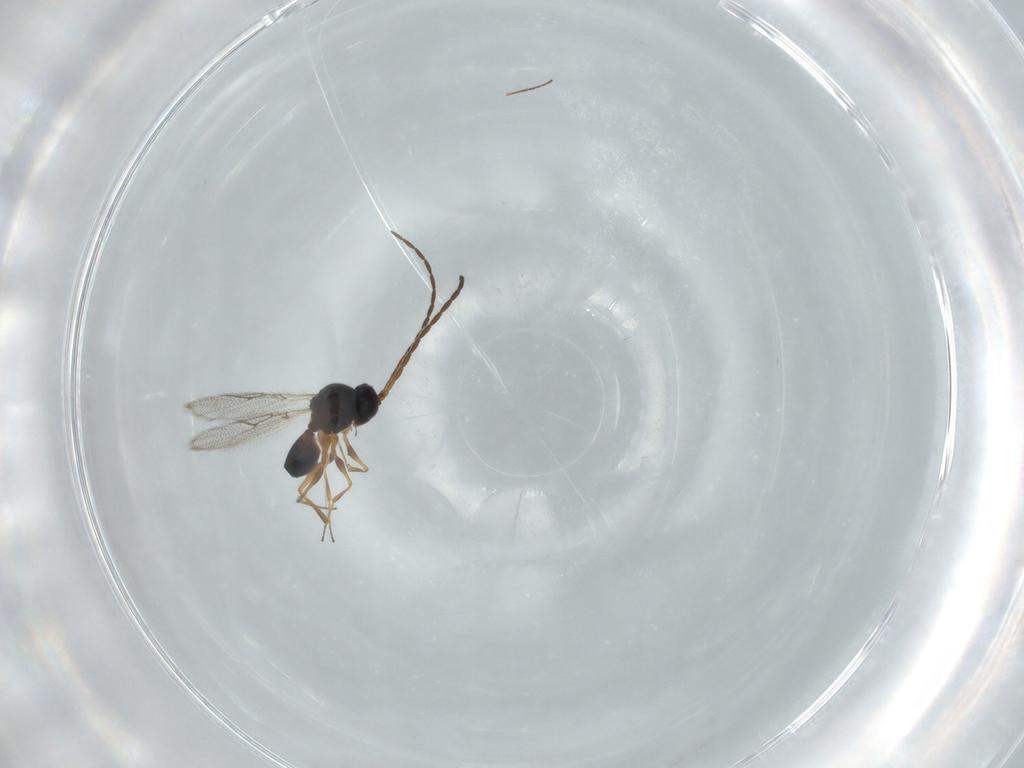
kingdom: Animalia
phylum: Arthropoda
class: Insecta
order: Hymenoptera
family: Figitidae
